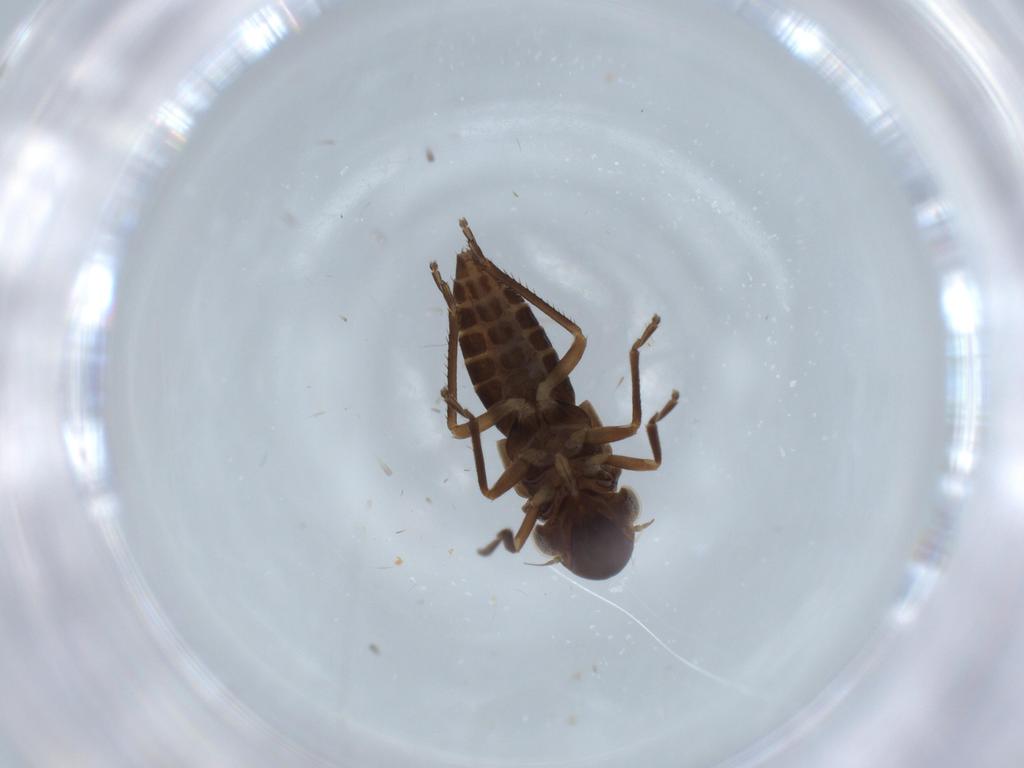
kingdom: Animalia
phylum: Arthropoda
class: Insecta
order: Hemiptera
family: Cicadellidae
